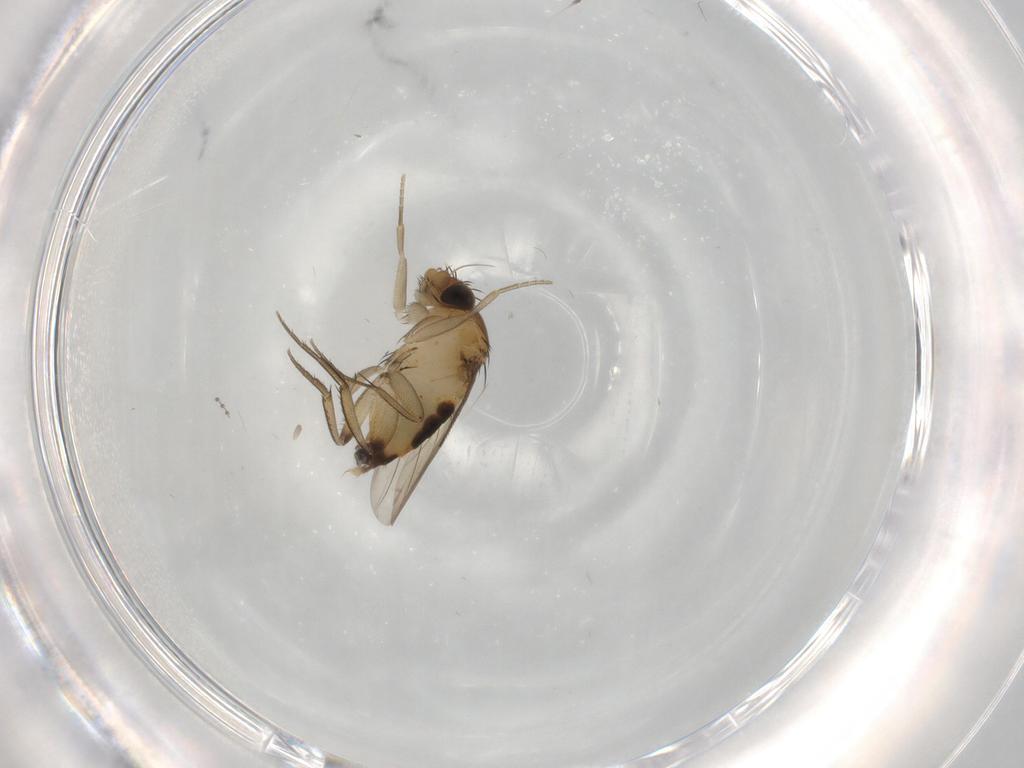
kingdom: Animalia
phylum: Arthropoda
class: Insecta
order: Diptera
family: Phoridae
